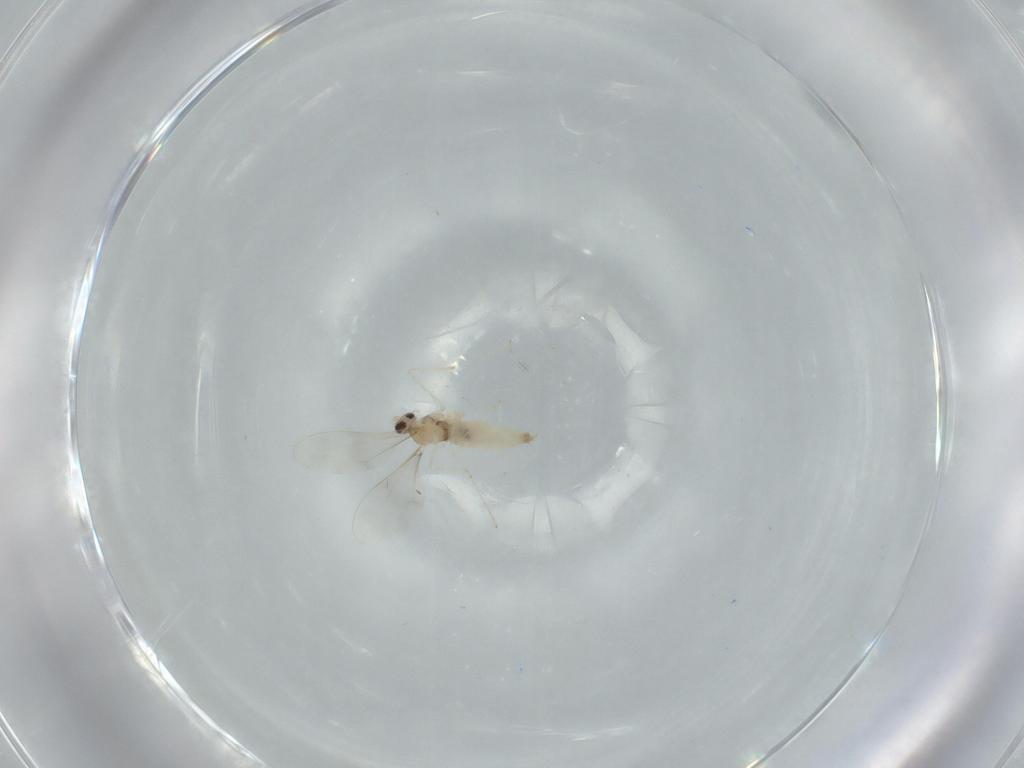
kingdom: Animalia
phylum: Arthropoda
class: Insecta
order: Diptera
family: Cecidomyiidae
